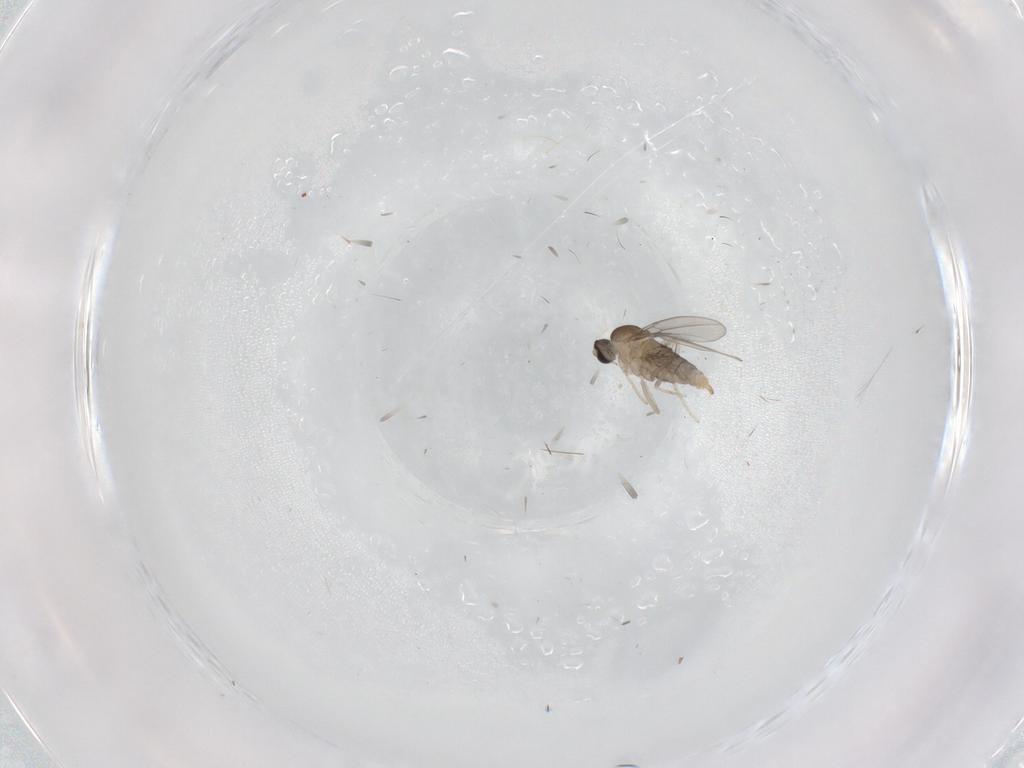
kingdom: Animalia
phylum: Arthropoda
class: Insecta
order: Diptera
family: Cecidomyiidae
